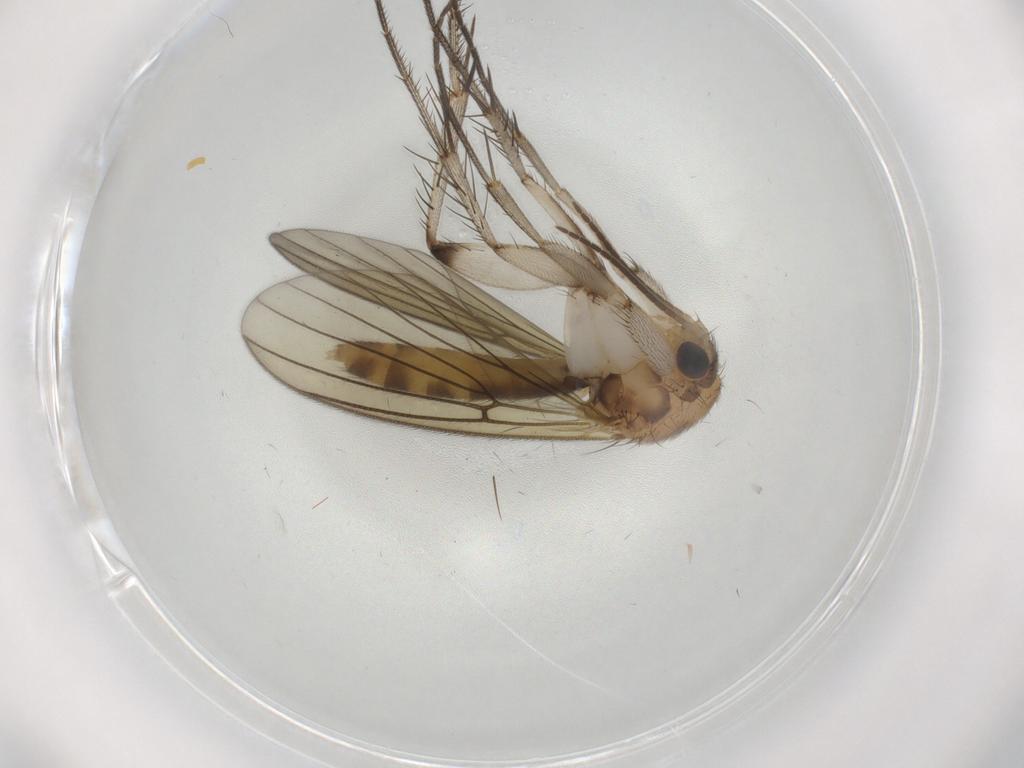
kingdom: Animalia
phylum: Arthropoda
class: Insecta
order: Diptera
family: Mycetophilidae
